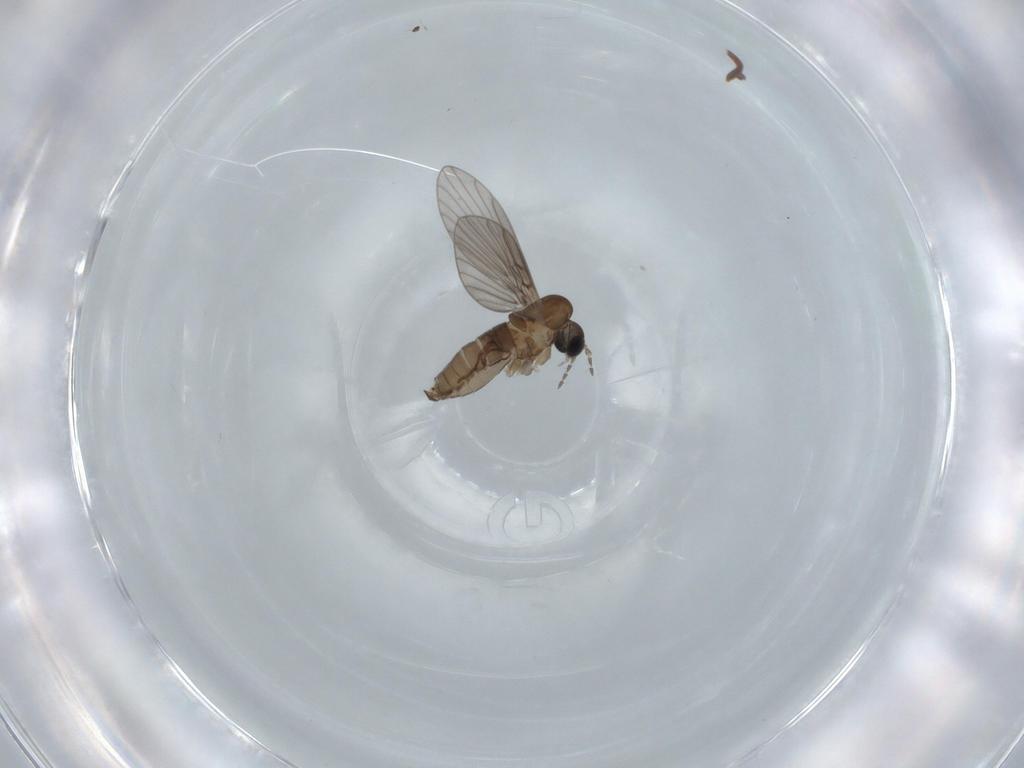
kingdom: Animalia
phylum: Arthropoda
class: Insecta
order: Diptera
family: Psychodidae
